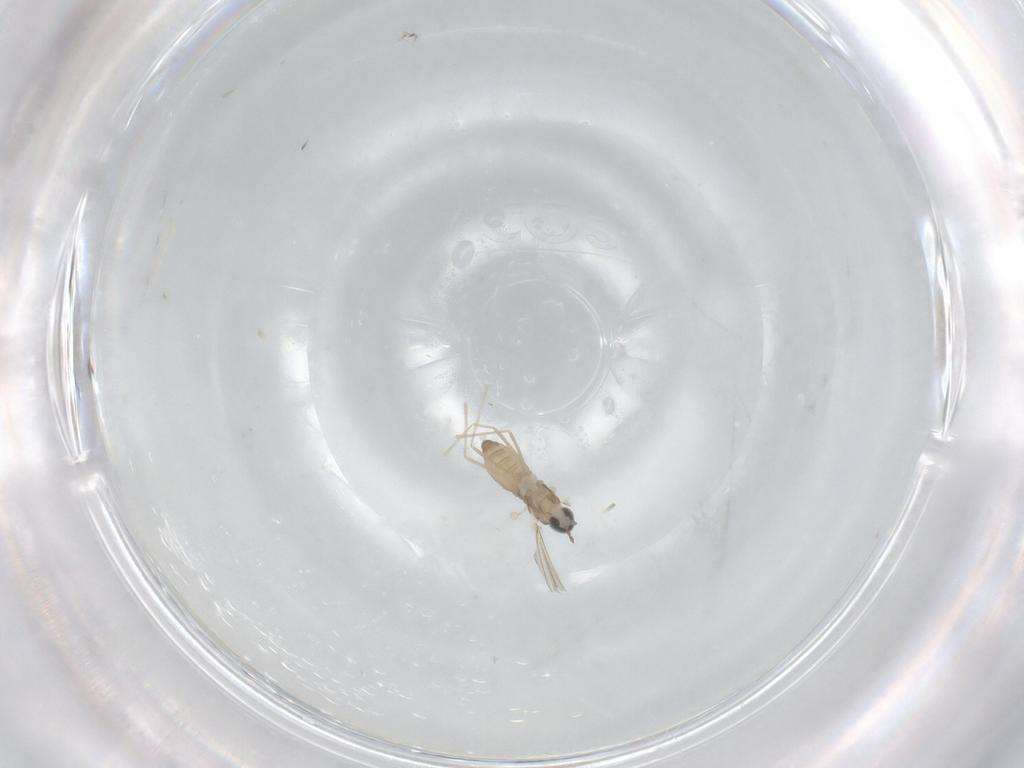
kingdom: Animalia
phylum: Arthropoda
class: Insecta
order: Diptera
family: Cecidomyiidae
